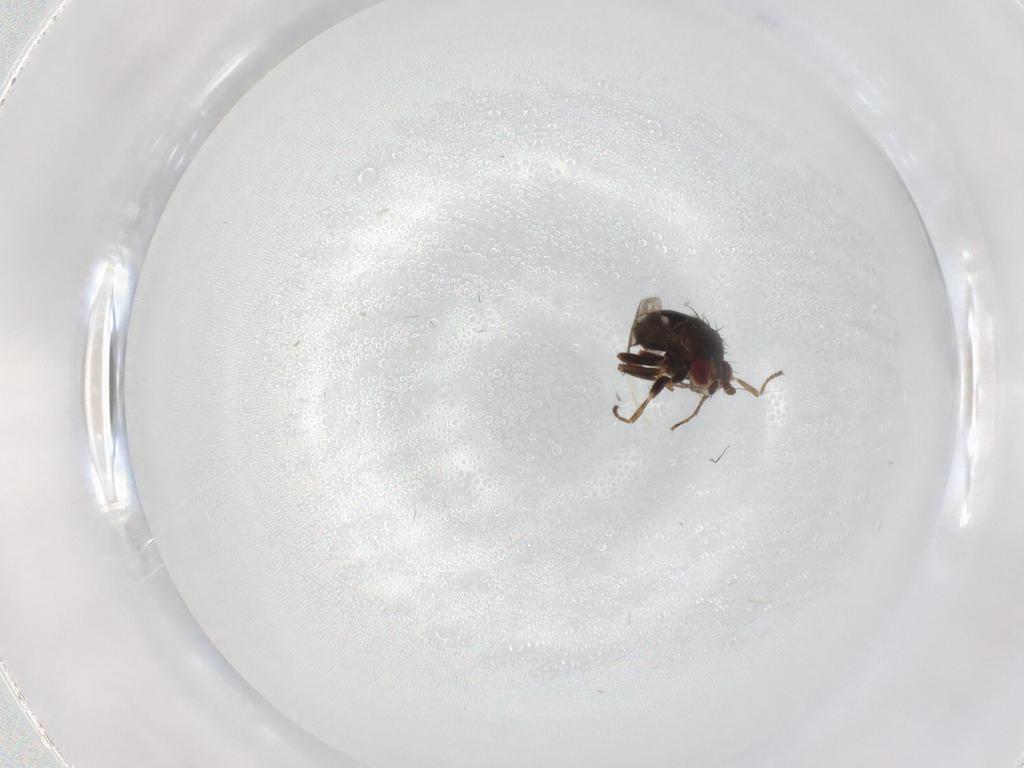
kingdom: Animalia
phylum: Arthropoda
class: Insecta
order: Diptera
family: Sphaeroceridae
